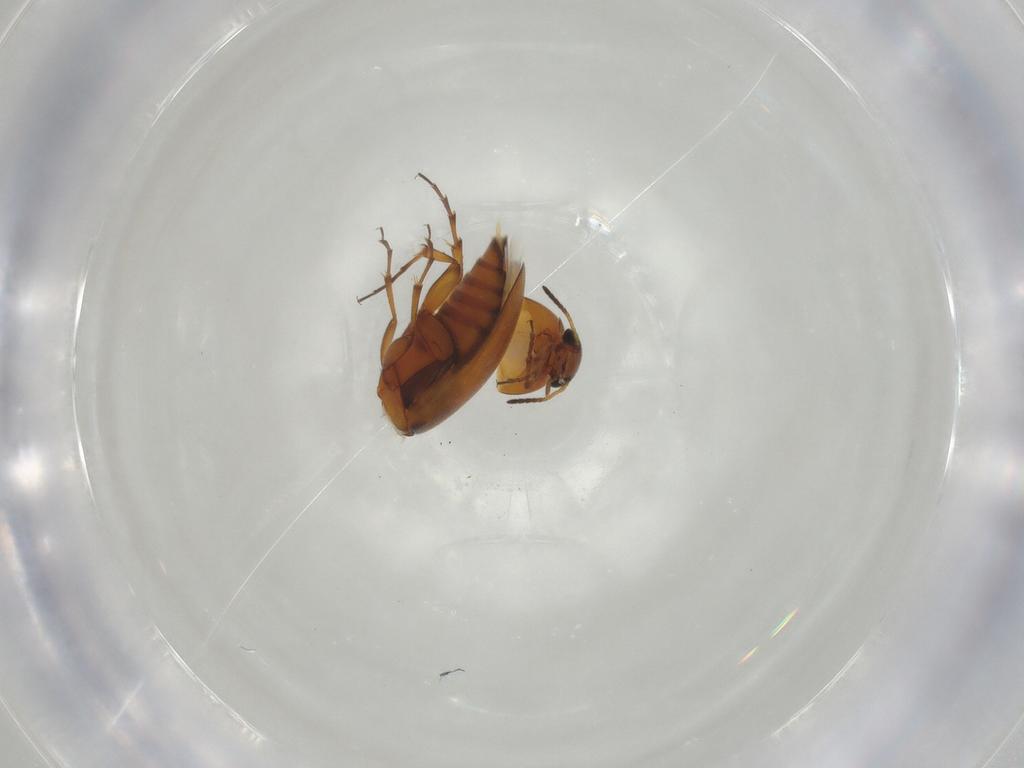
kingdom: Animalia
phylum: Arthropoda
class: Insecta
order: Coleoptera
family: Scraptiidae
